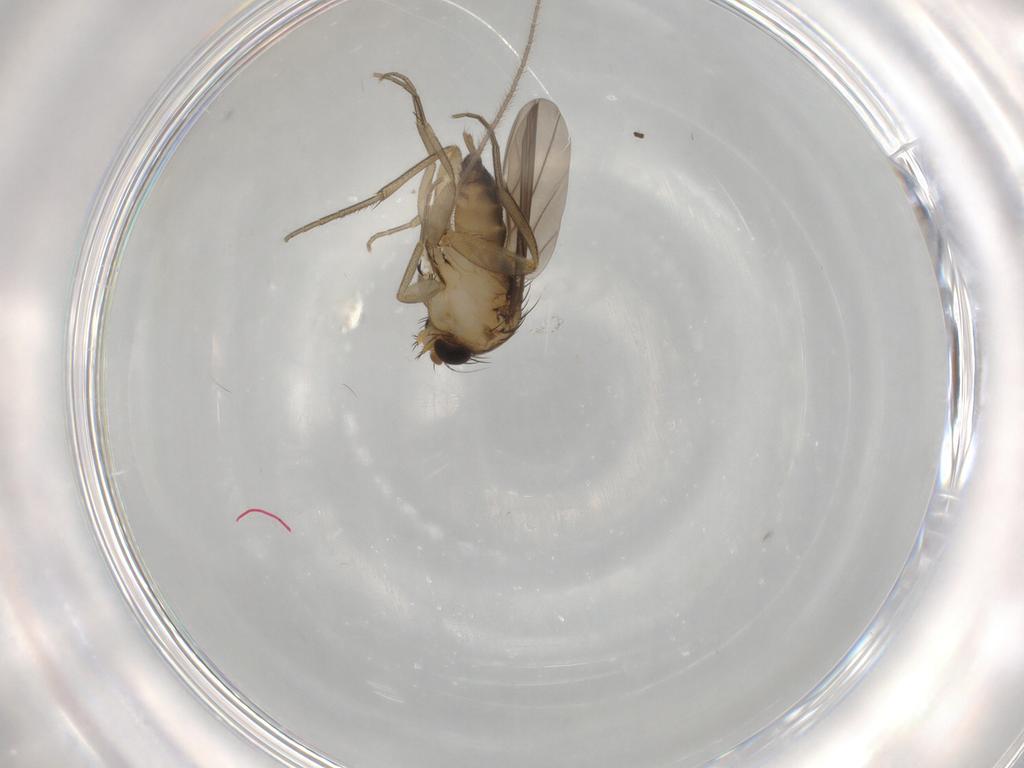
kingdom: Animalia
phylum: Arthropoda
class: Insecta
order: Diptera
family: Phoridae
